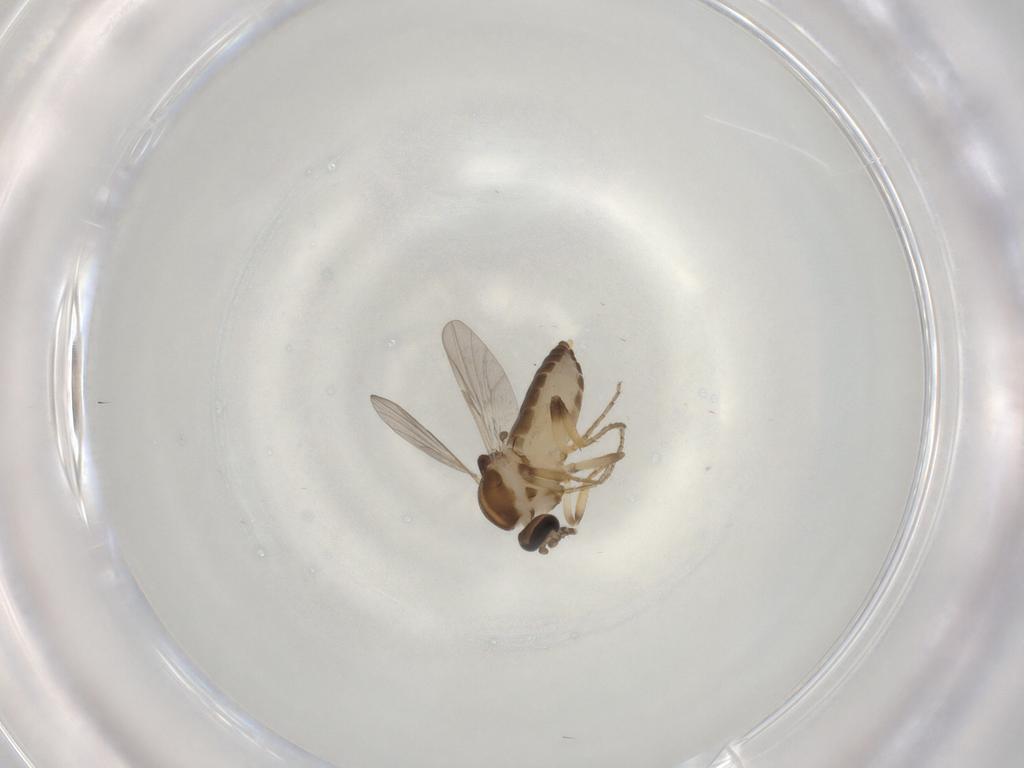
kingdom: Animalia
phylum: Arthropoda
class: Insecta
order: Diptera
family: Ceratopogonidae
